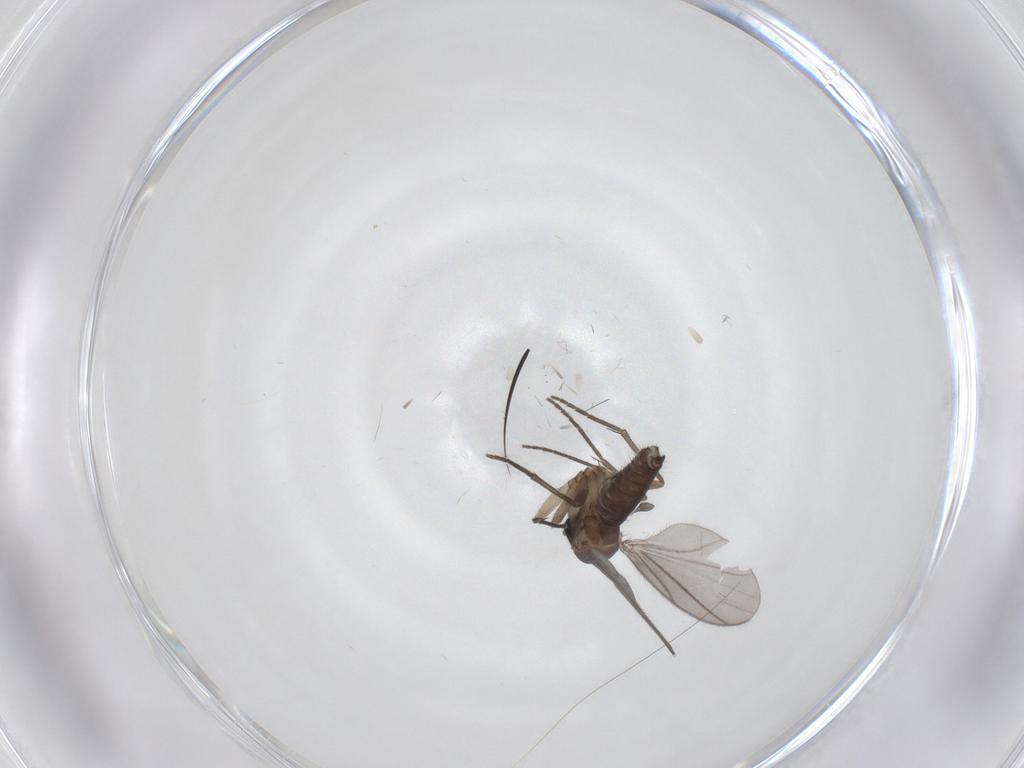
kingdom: Animalia
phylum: Arthropoda
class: Insecta
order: Diptera
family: Sciaridae
